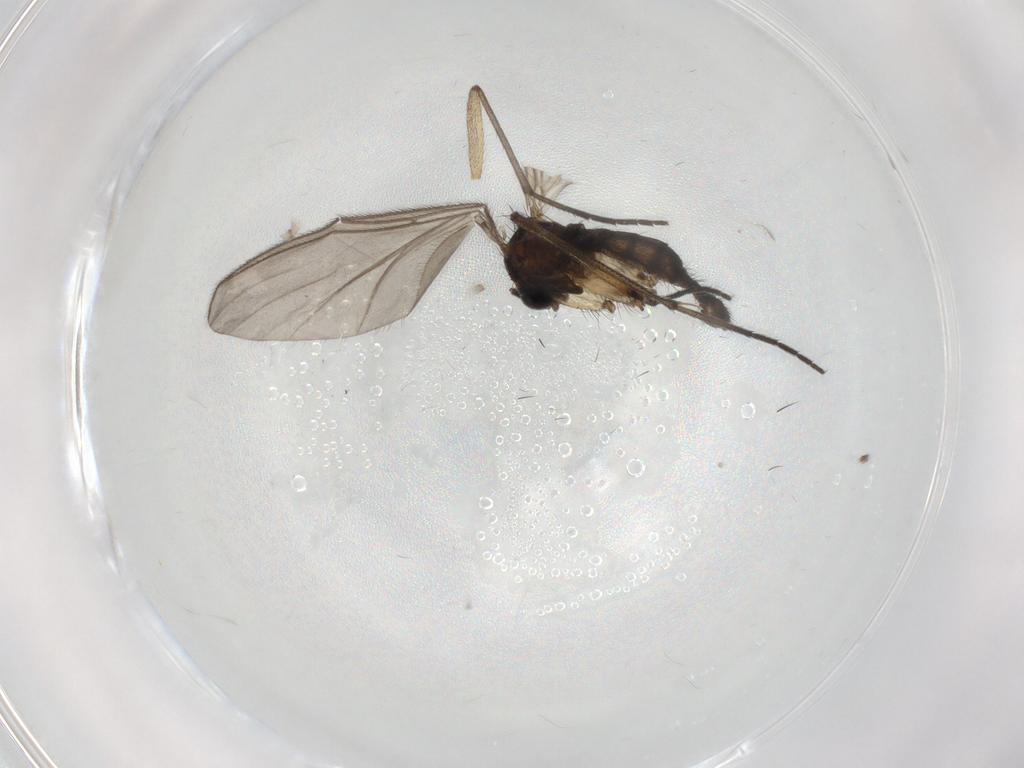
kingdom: Animalia
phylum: Arthropoda
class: Insecta
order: Diptera
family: Sciaridae
